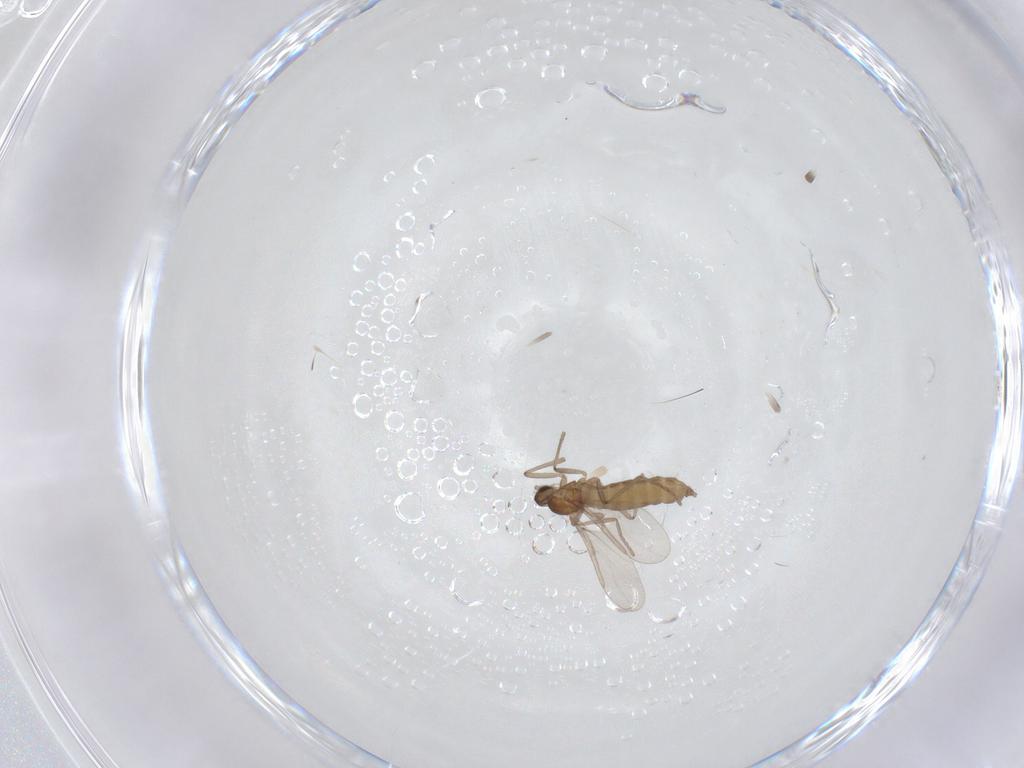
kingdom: Animalia
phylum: Arthropoda
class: Insecta
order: Diptera
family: Cecidomyiidae
